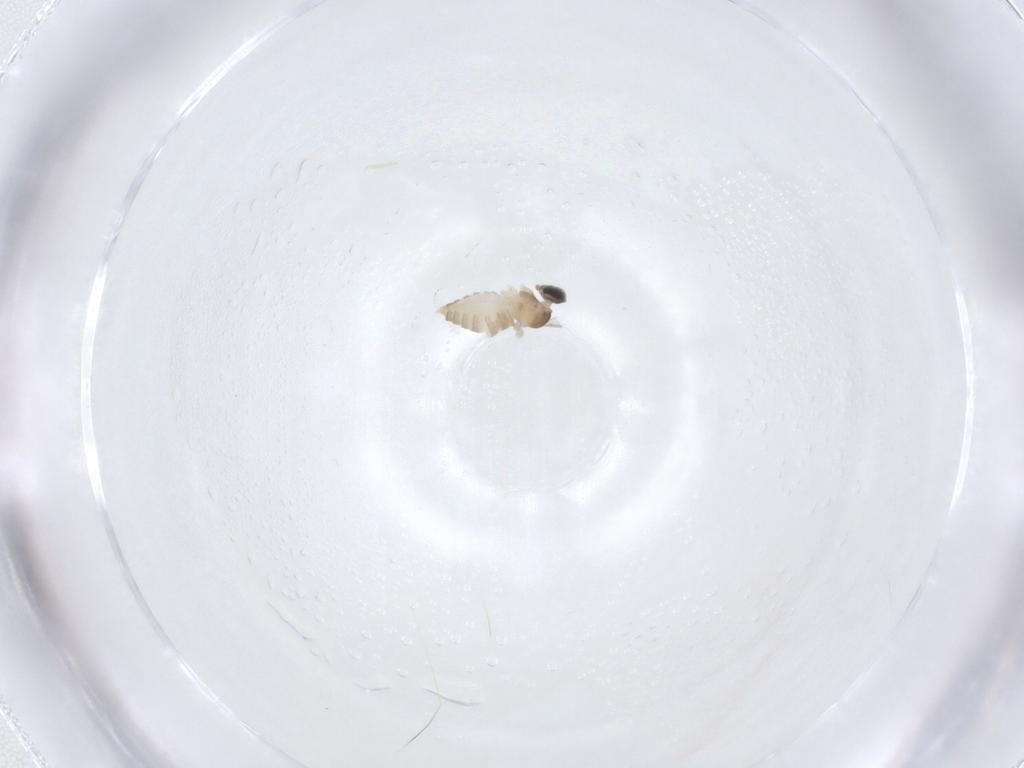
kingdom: Animalia
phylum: Arthropoda
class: Insecta
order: Diptera
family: Cecidomyiidae
